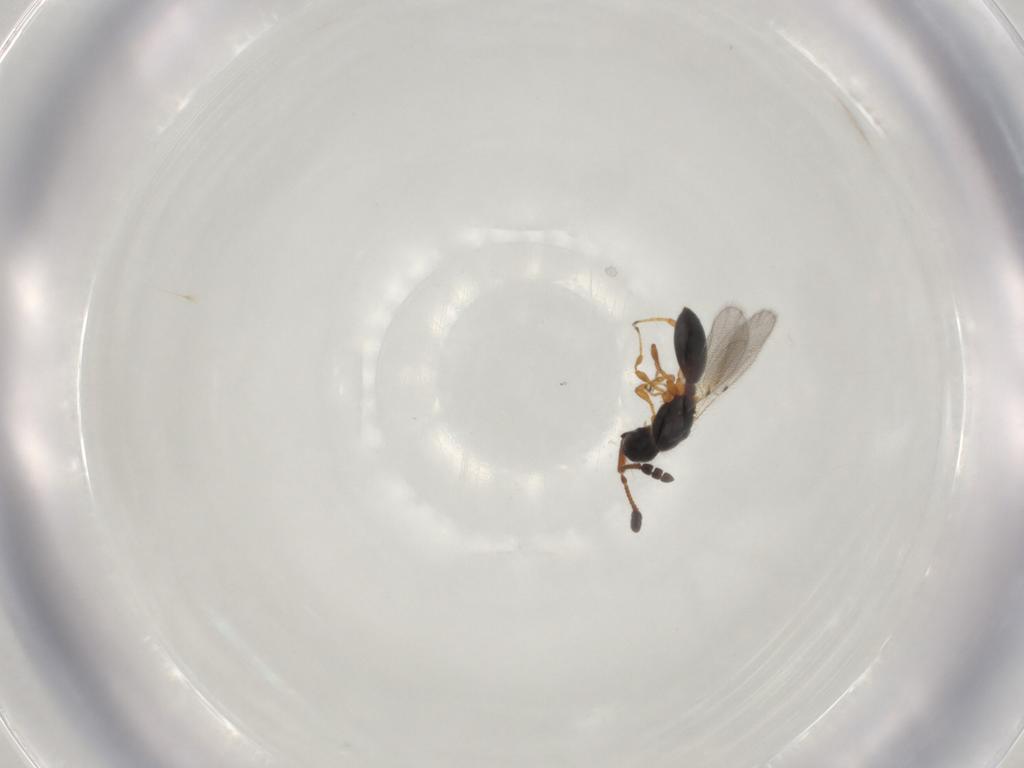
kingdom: Animalia
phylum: Arthropoda
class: Insecta
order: Hymenoptera
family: Diapriidae
